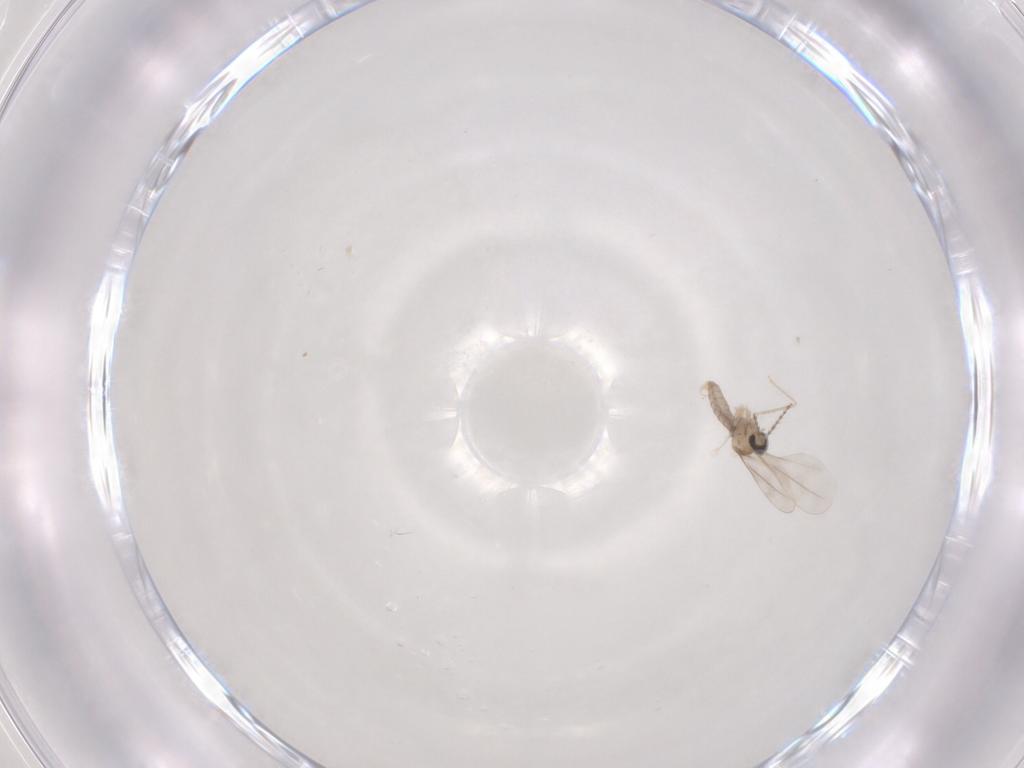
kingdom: Animalia
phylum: Arthropoda
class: Insecta
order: Diptera
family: Cecidomyiidae
